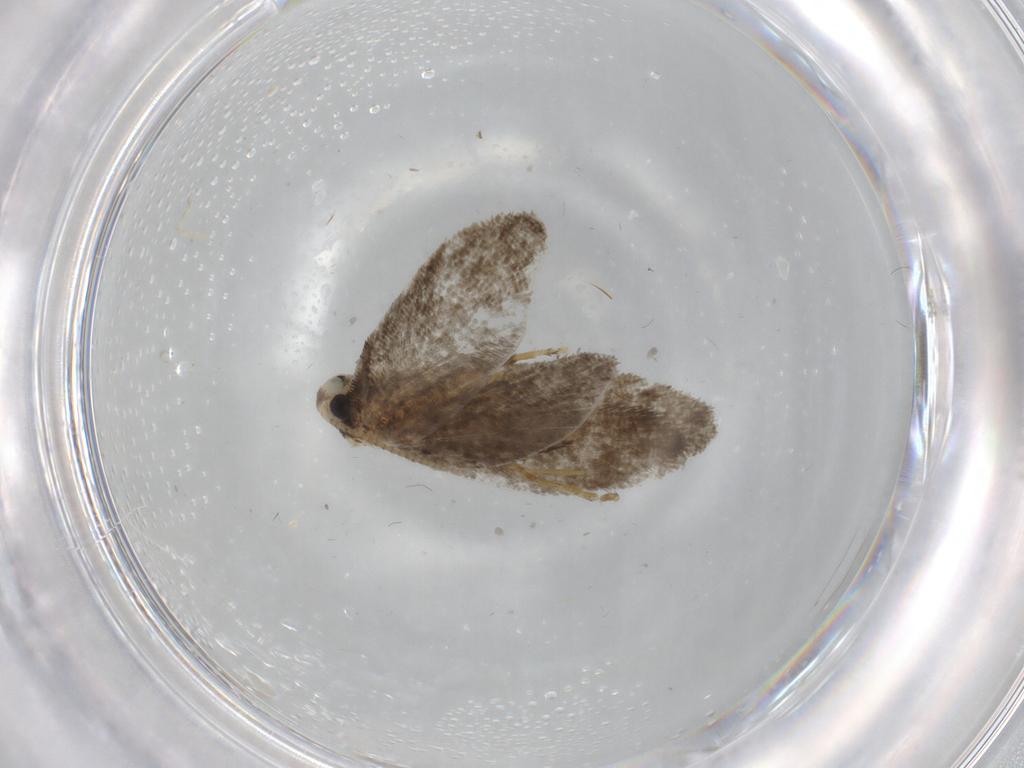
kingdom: Animalia
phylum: Arthropoda
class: Insecta
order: Lepidoptera
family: Psychidae
